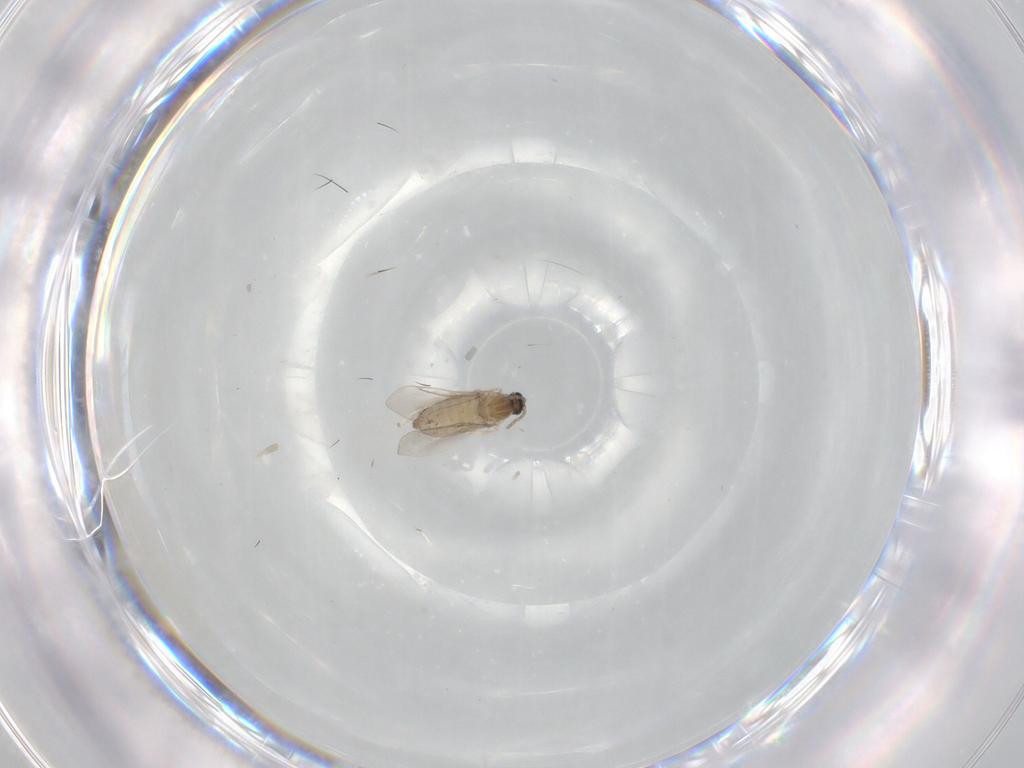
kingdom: Animalia
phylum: Arthropoda
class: Insecta
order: Diptera
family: Cecidomyiidae
